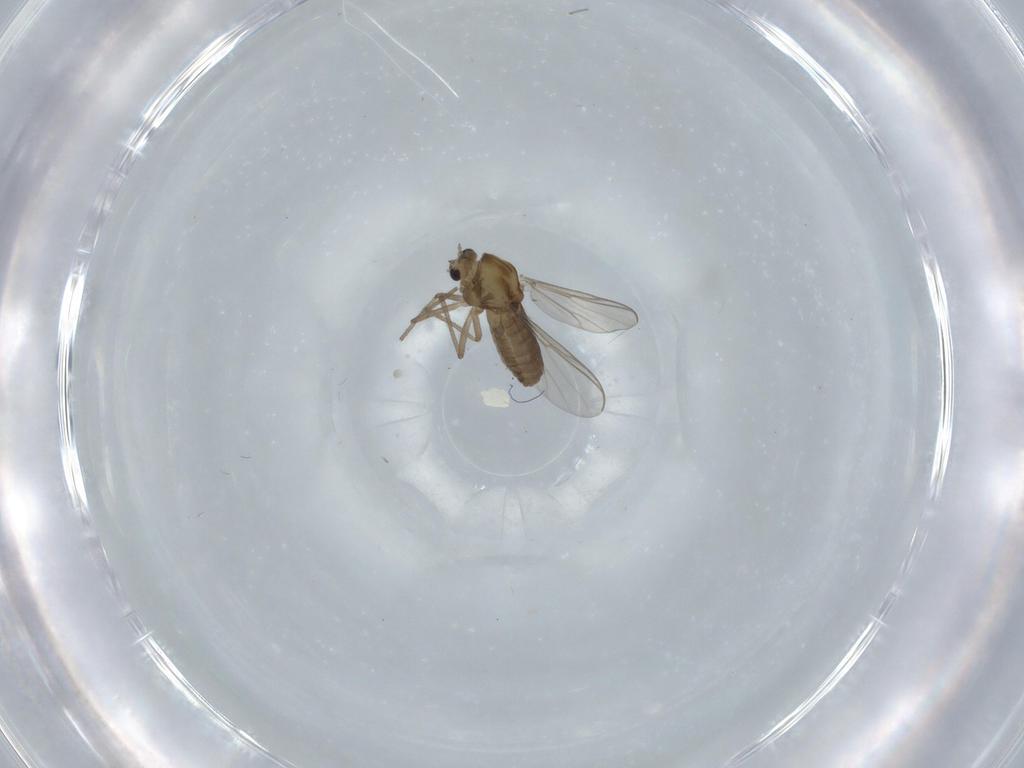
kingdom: Animalia
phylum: Arthropoda
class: Insecta
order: Diptera
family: Chironomidae
